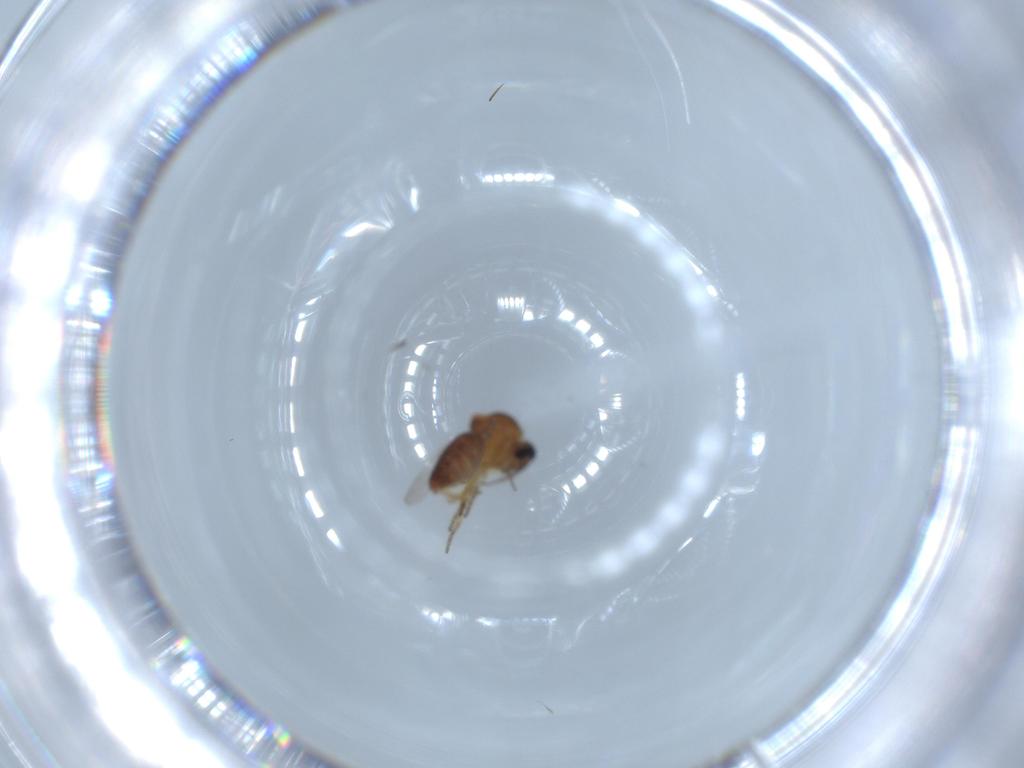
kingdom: Animalia
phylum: Arthropoda
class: Insecta
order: Diptera
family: Ceratopogonidae
